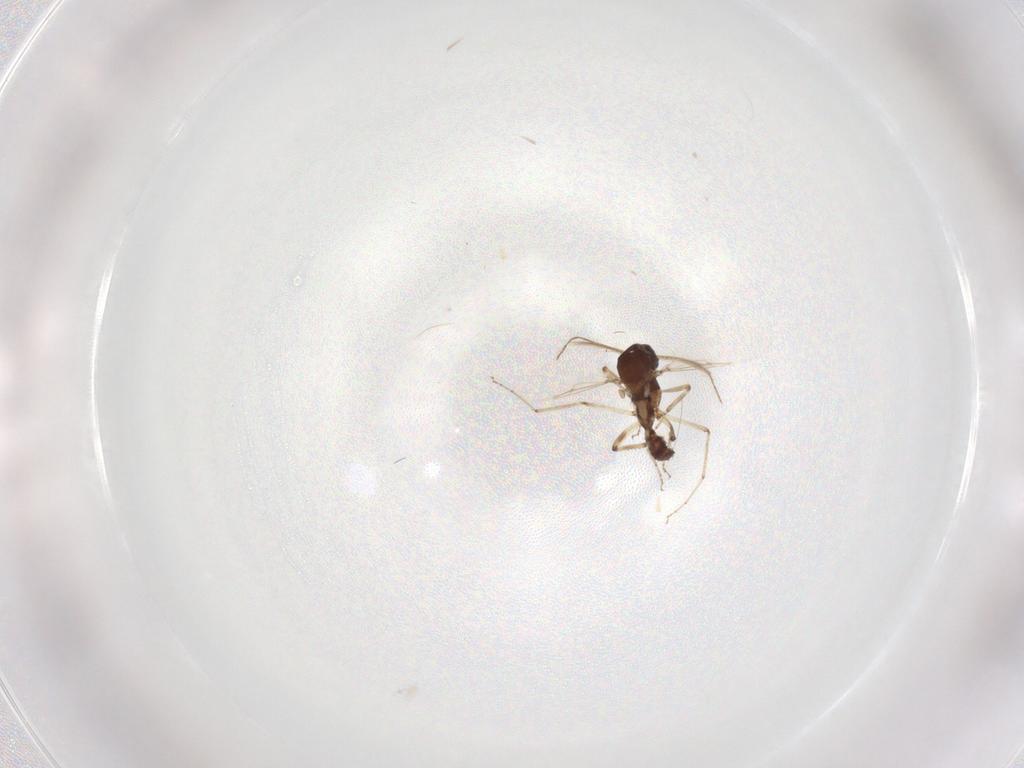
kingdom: Animalia
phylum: Arthropoda
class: Insecta
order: Diptera
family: Ceratopogonidae
